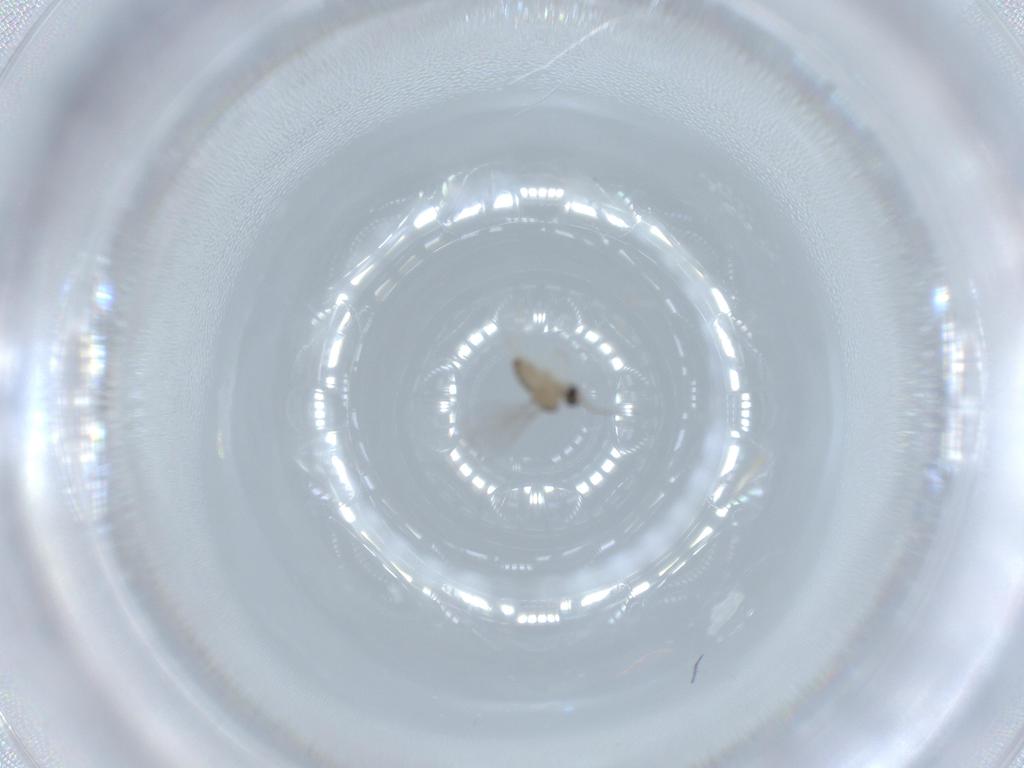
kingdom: Animalia
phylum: Arthropoda
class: Insecta
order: Diptera
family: Cecidomyiidae
